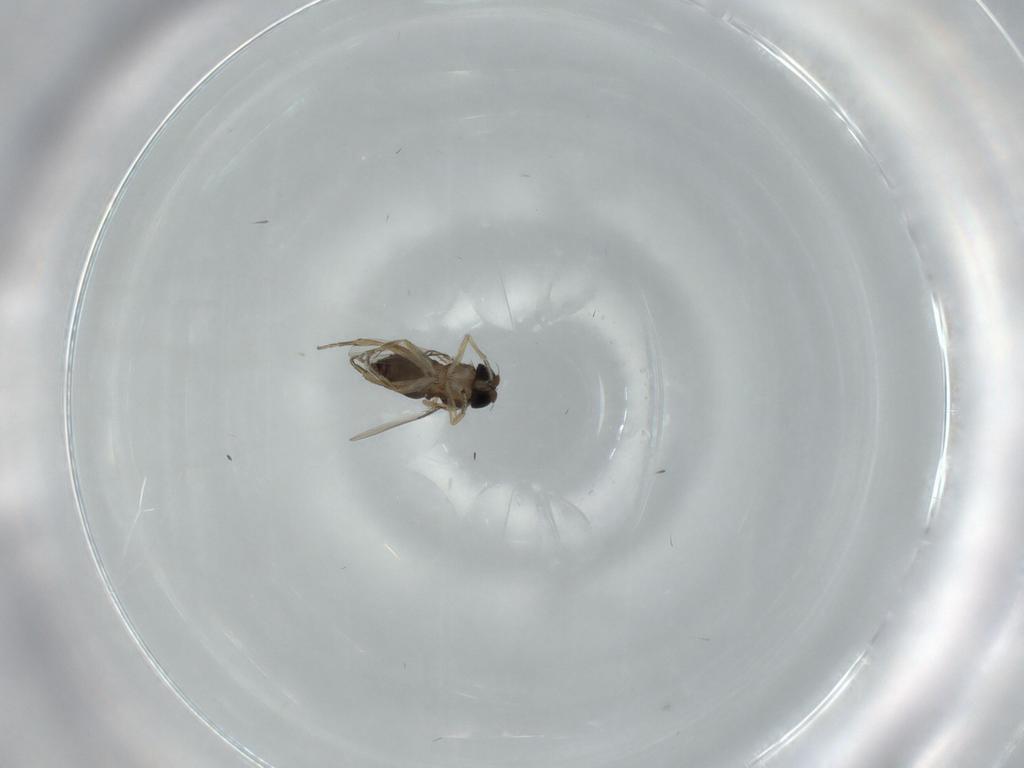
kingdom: Animalia
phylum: Arthropoda
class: Insecta
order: Diptera
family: Phoridae
